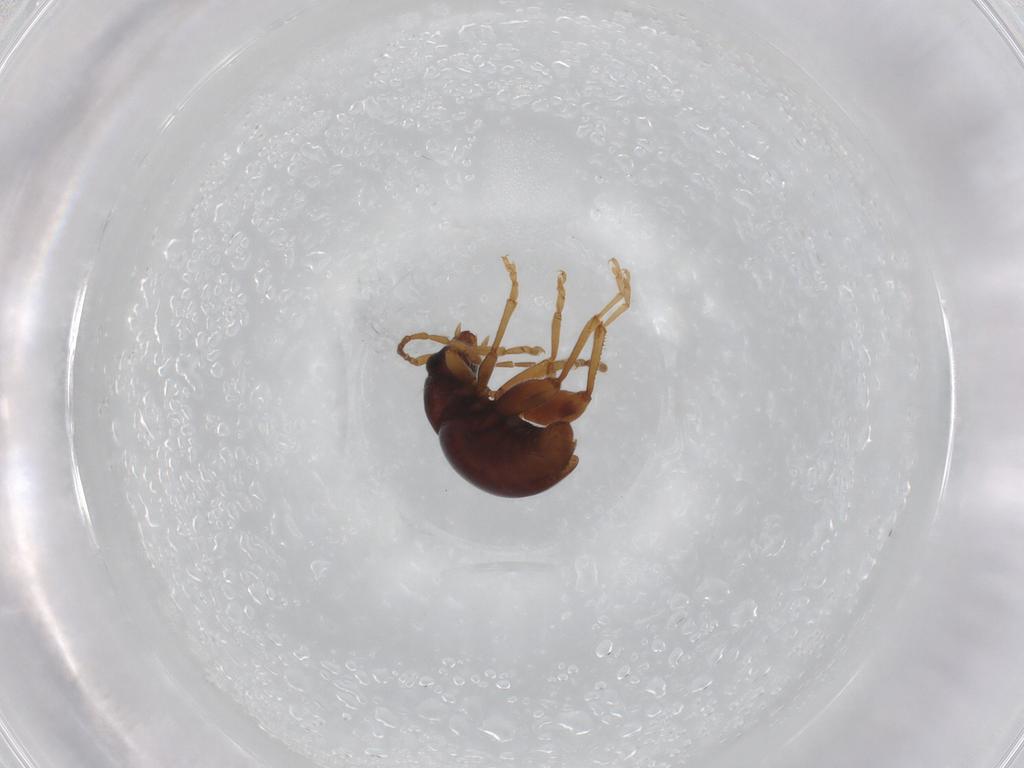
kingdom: Animalia
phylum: Arthropoda
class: Insecta
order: Coleoptera
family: Chrysomelidae
